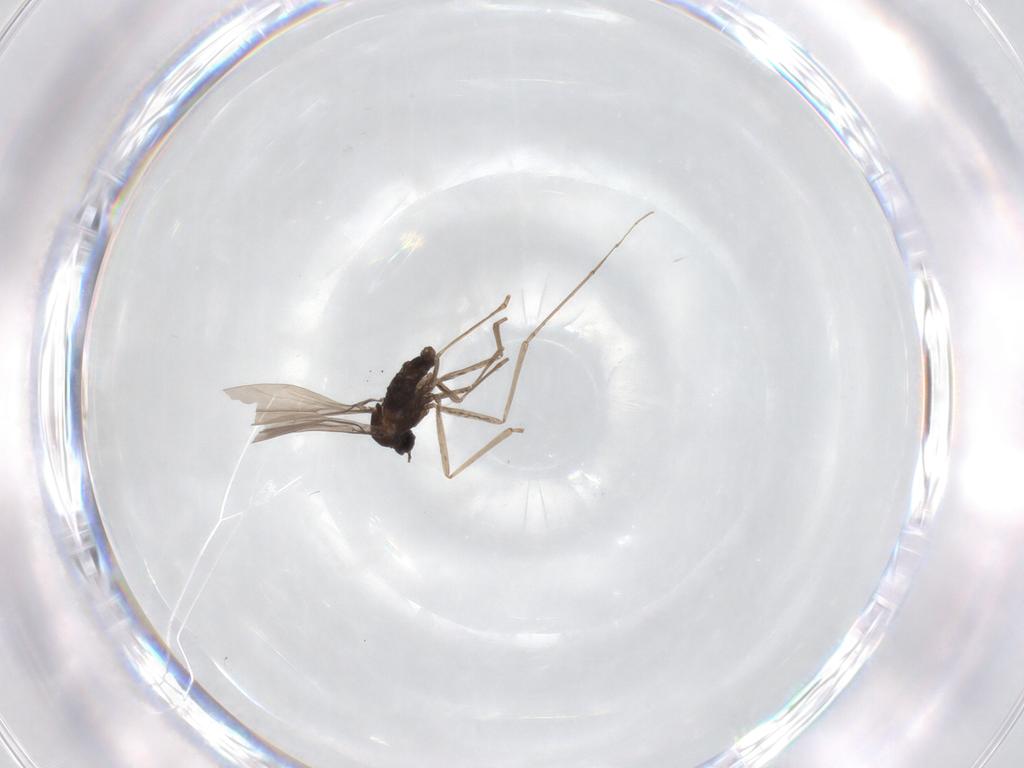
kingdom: Animalia
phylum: Arthropoda
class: Insecta
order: Diptera
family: Cecidomyiidae
